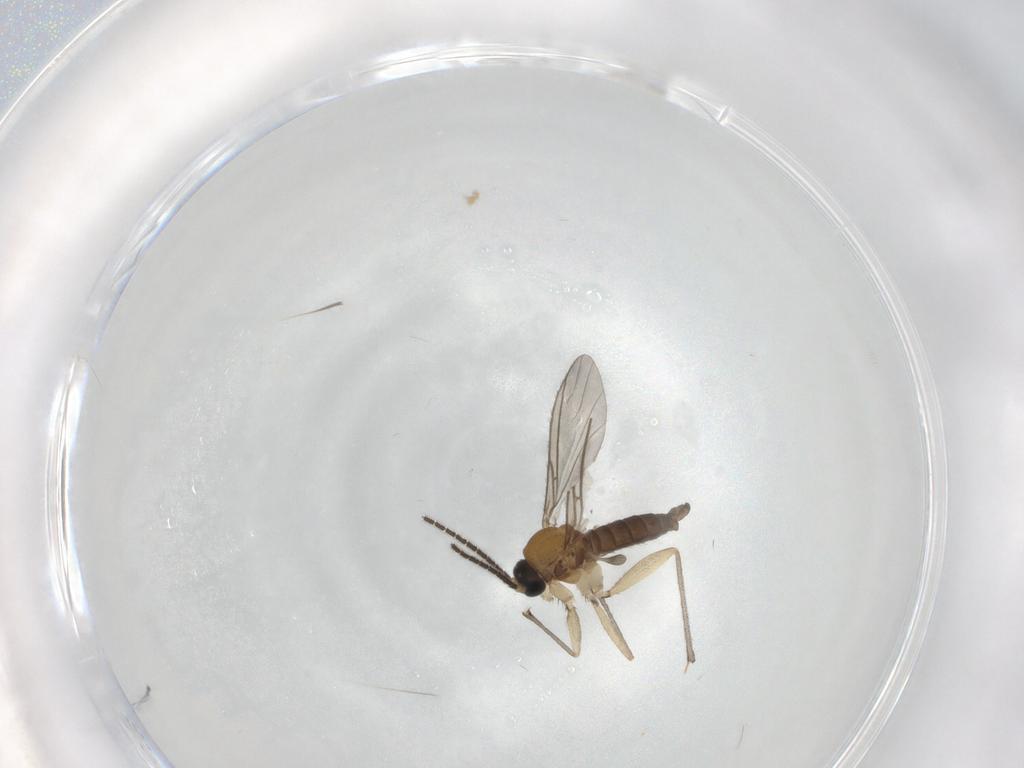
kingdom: Animalia
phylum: Arthropoda
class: Insecta
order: Diptera
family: Sciaridae
